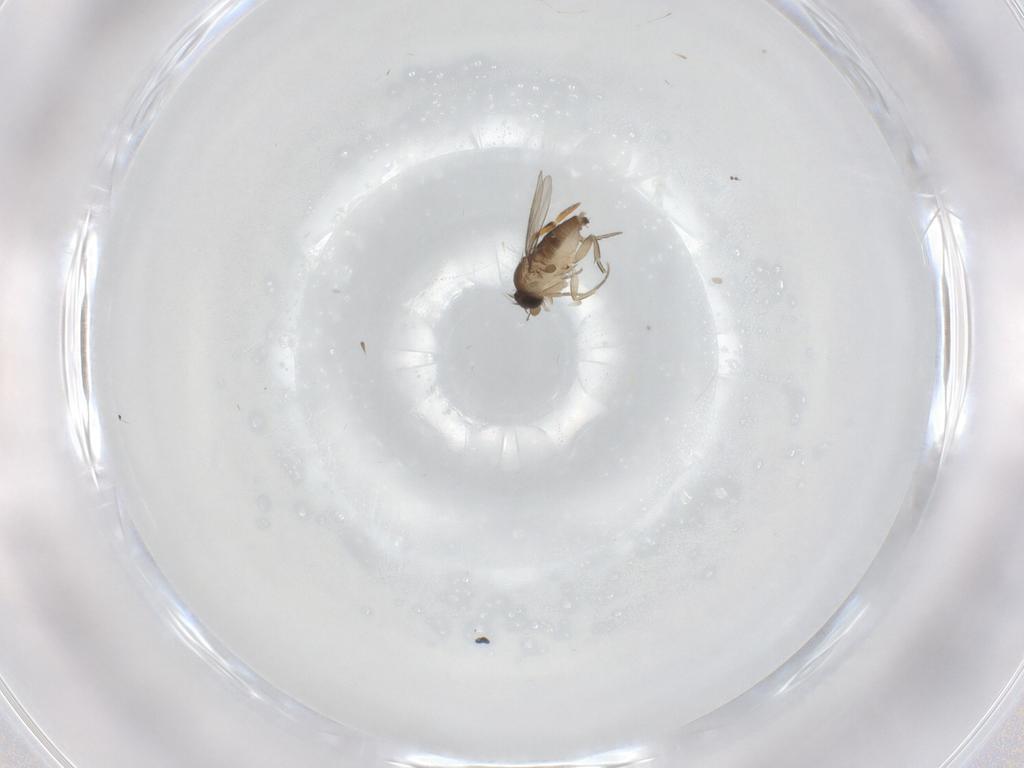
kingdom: Animalia
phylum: Arthropoda
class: Insecta
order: Diptera
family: Phoridae
